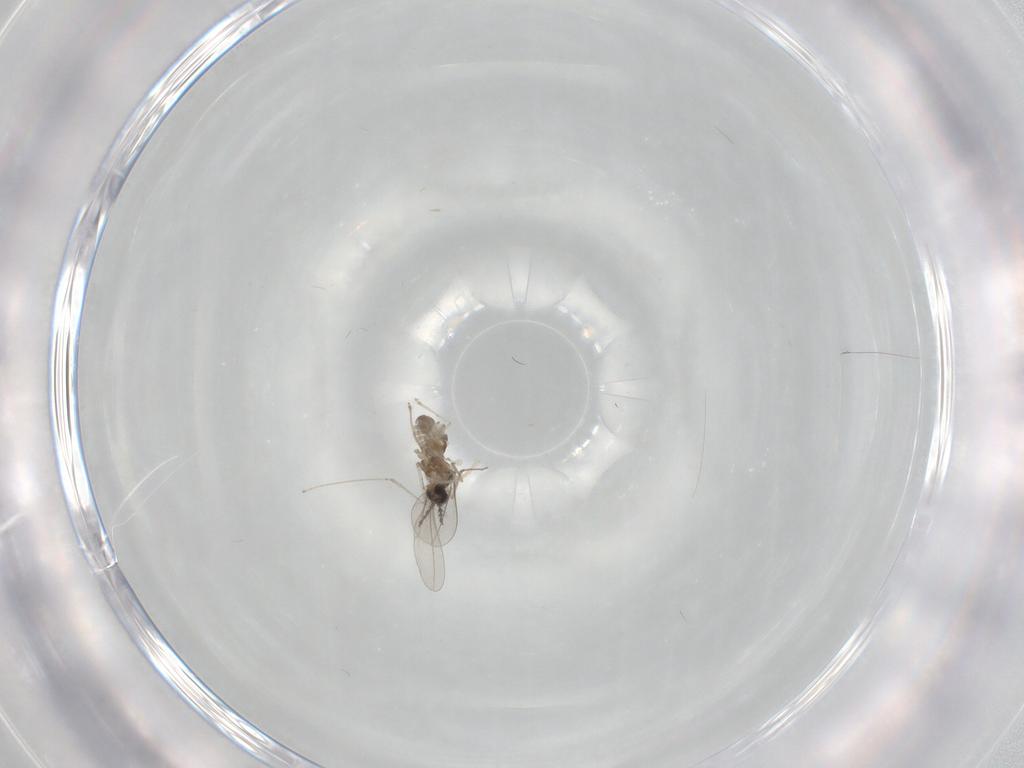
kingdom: Animalia
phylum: Arthropoda
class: Insecta
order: Diptera
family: Cecidomyiidae
